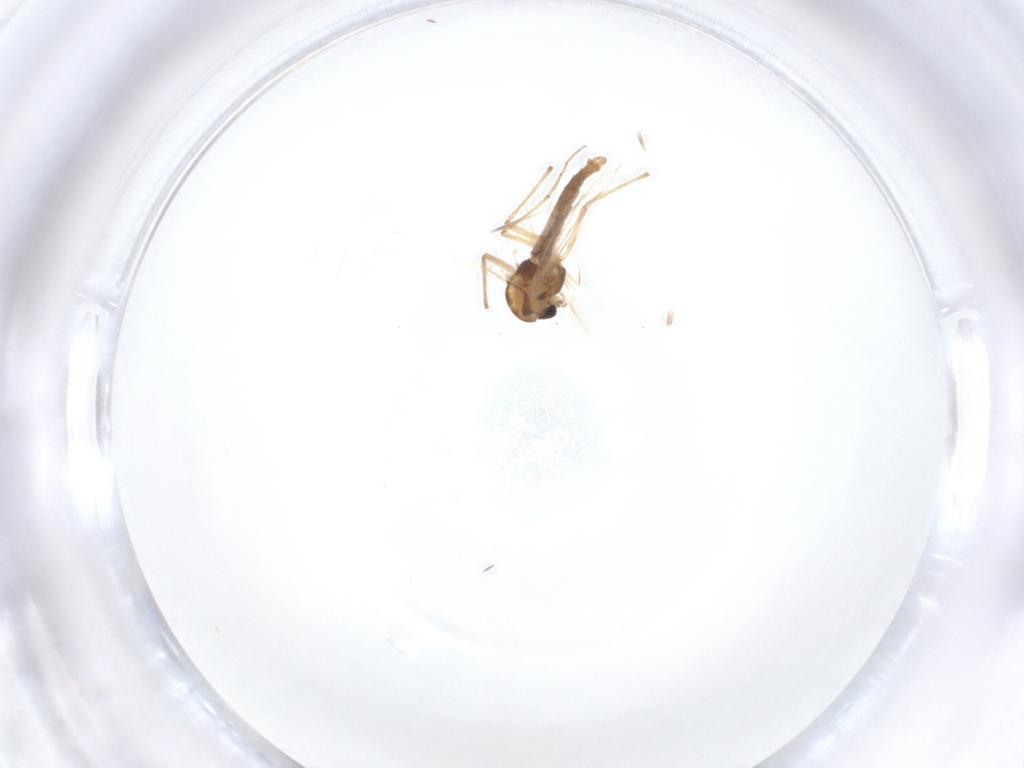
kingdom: Animalia
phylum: Arthropoda
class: Insecta
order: Diptera
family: Chironomidae
